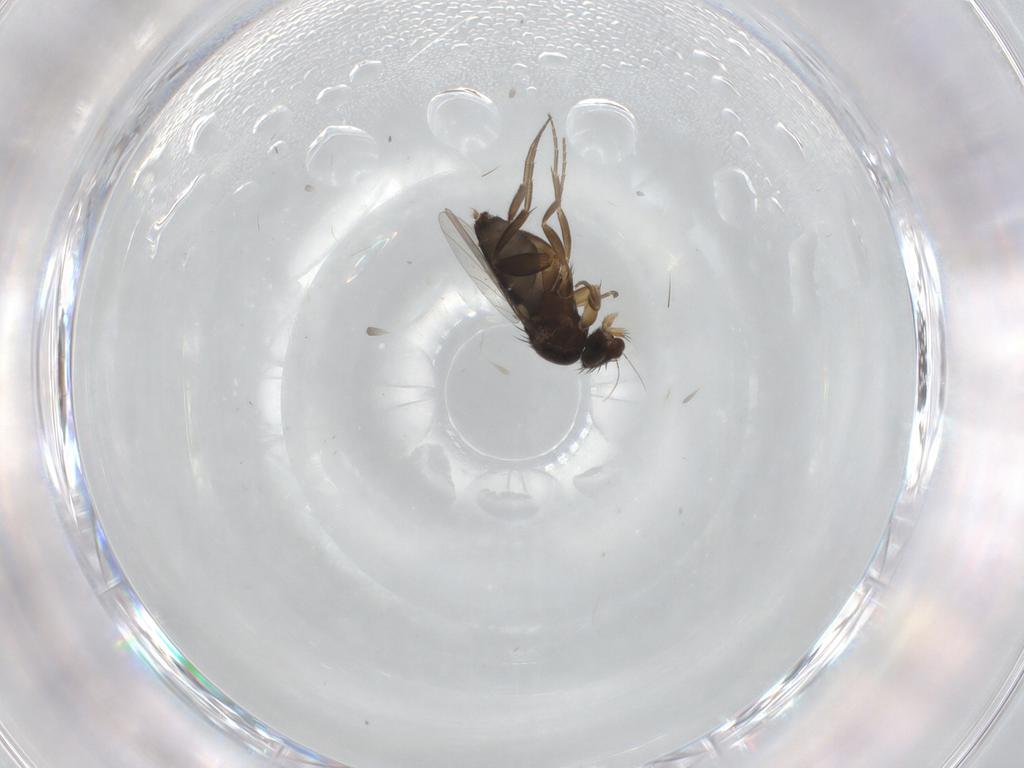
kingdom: Animalia
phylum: Arthropoda
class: Insecta
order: Diptera
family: Phoridae
